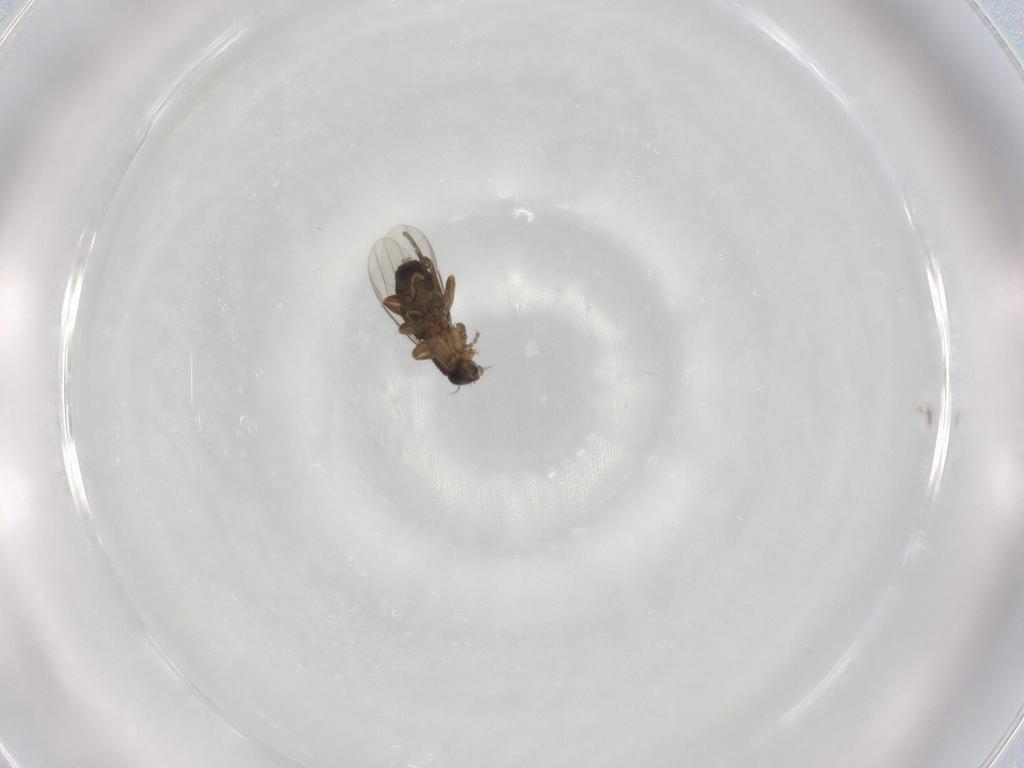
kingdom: Animalia
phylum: Arthropoda
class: Insecta
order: Diptera
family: Phoridae
